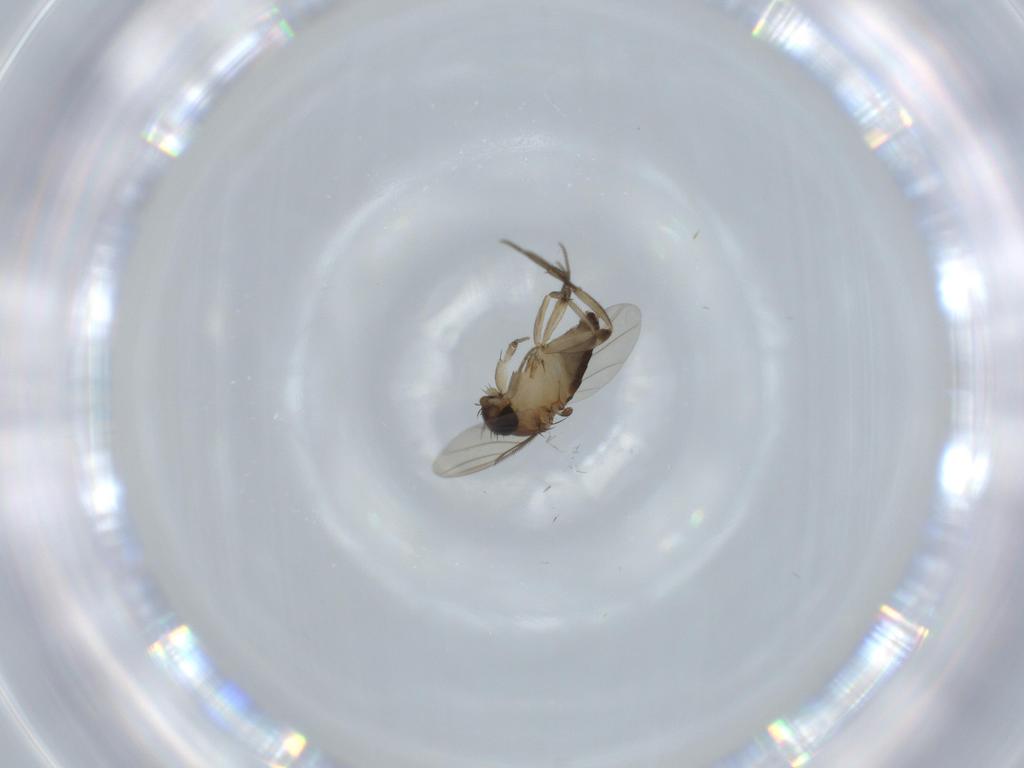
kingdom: Animalia
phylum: Arthropoda
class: Insecta
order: Diptera
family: Phoridae
